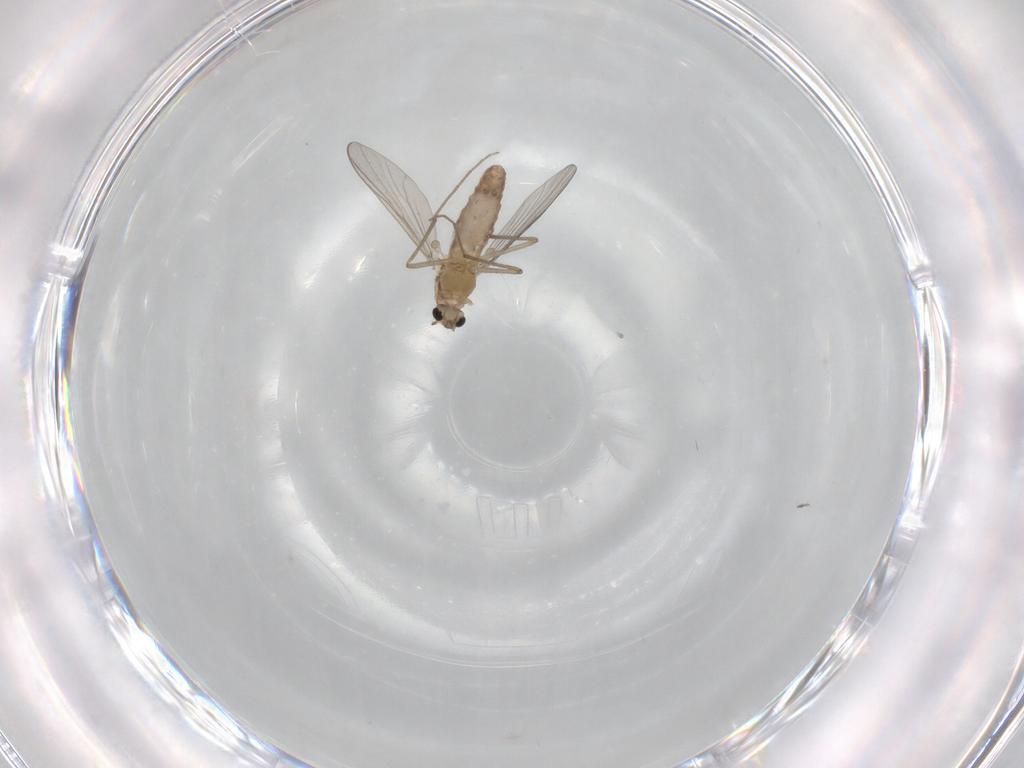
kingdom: Animalia
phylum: Arthropoda
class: Insecta
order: Diptera
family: Chironomidae
